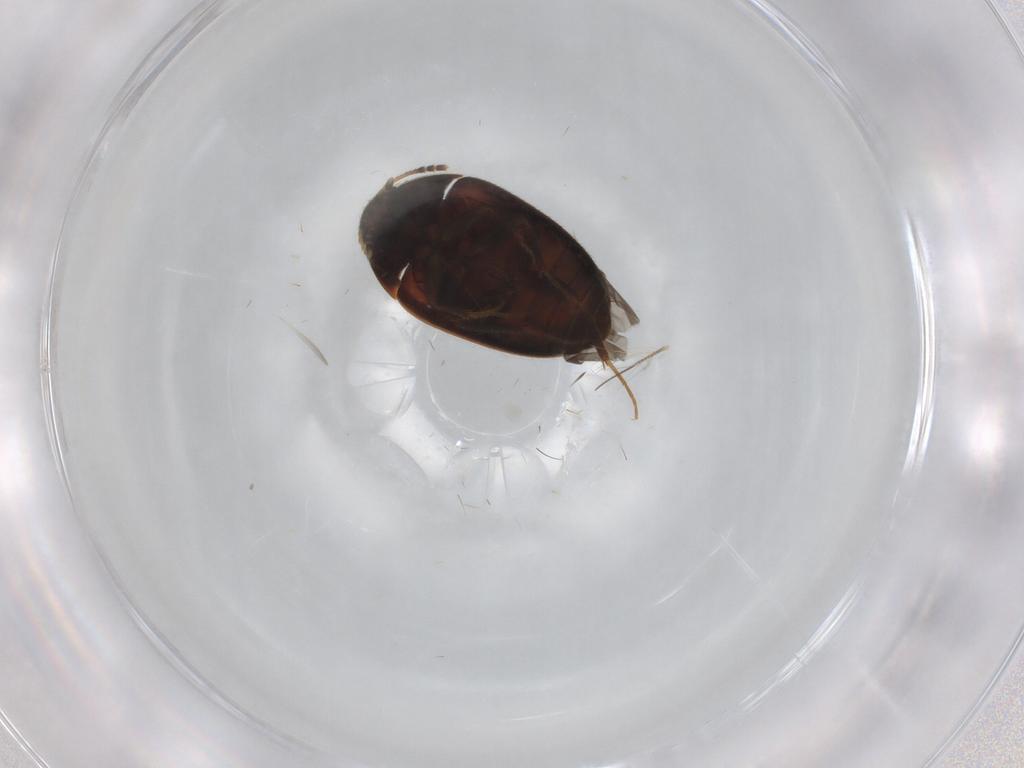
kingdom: Animalia
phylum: Arthropoda
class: Insecta
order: Coleoptera
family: Mycetophagidae
